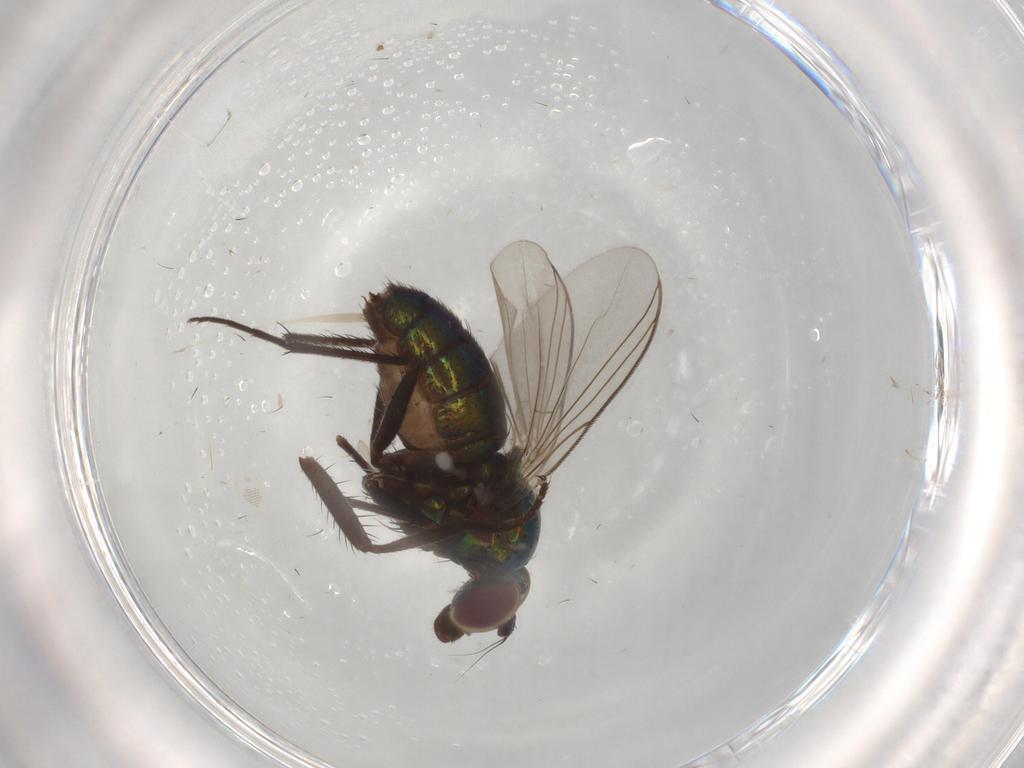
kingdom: Animalia
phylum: Arthropoda
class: Insecta
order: Diptera
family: Dolichopodidae
